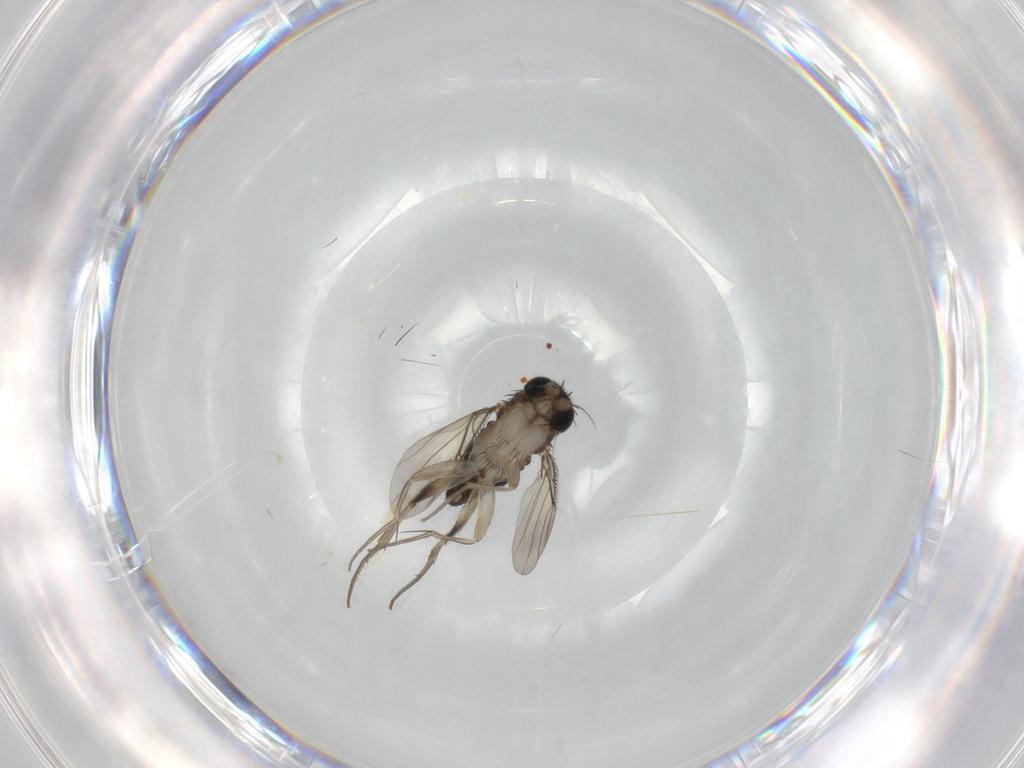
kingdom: Animalia
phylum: Arthropoda
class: Insecta
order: Diptera
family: Phoridae
